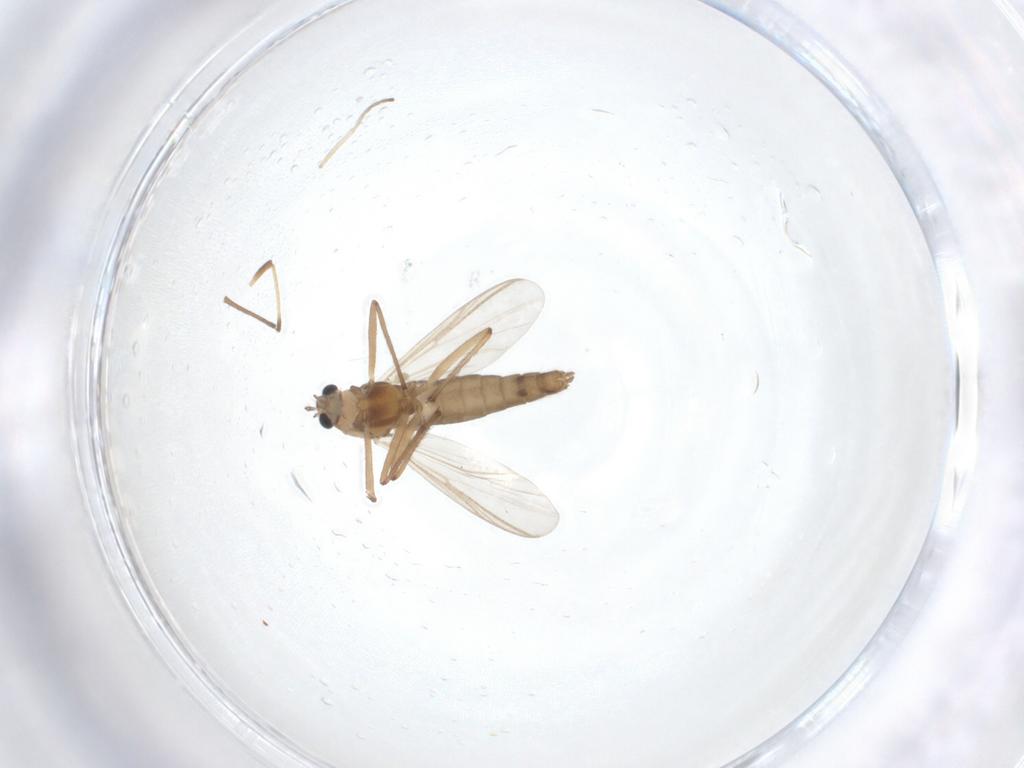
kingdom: Animalia
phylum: Arthropoda
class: Insecta
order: Diptera
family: Chironomidae
